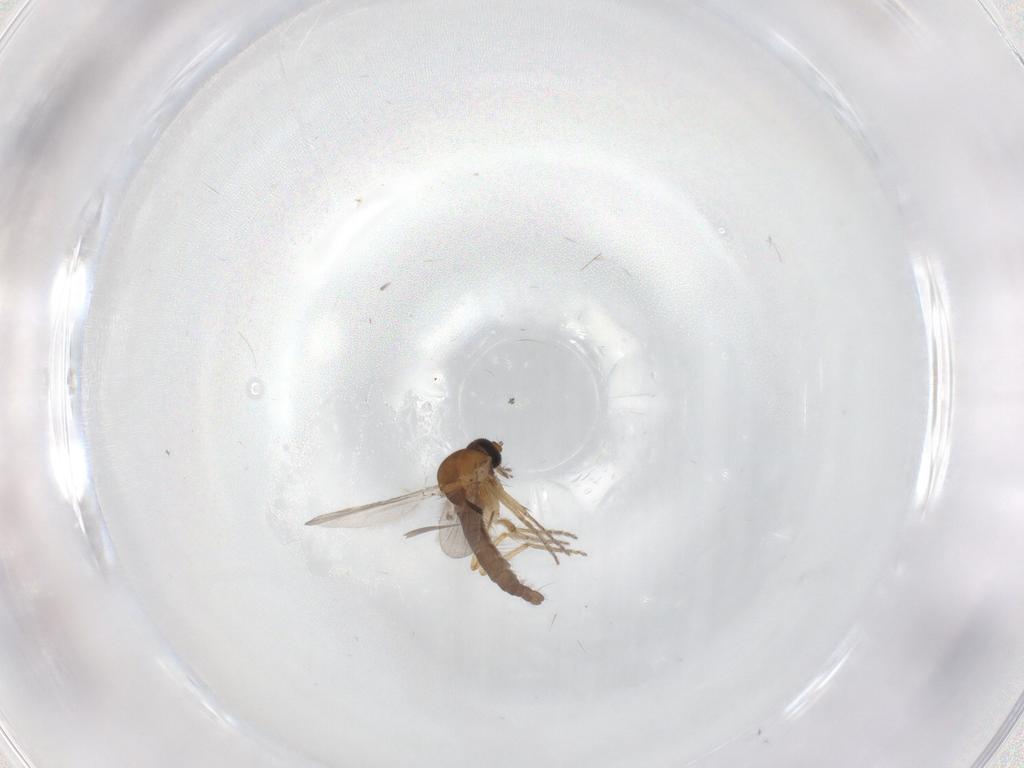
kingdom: Animalia
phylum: Arthropoda
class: Insecta
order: Diptera
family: Ceratopogonidae
